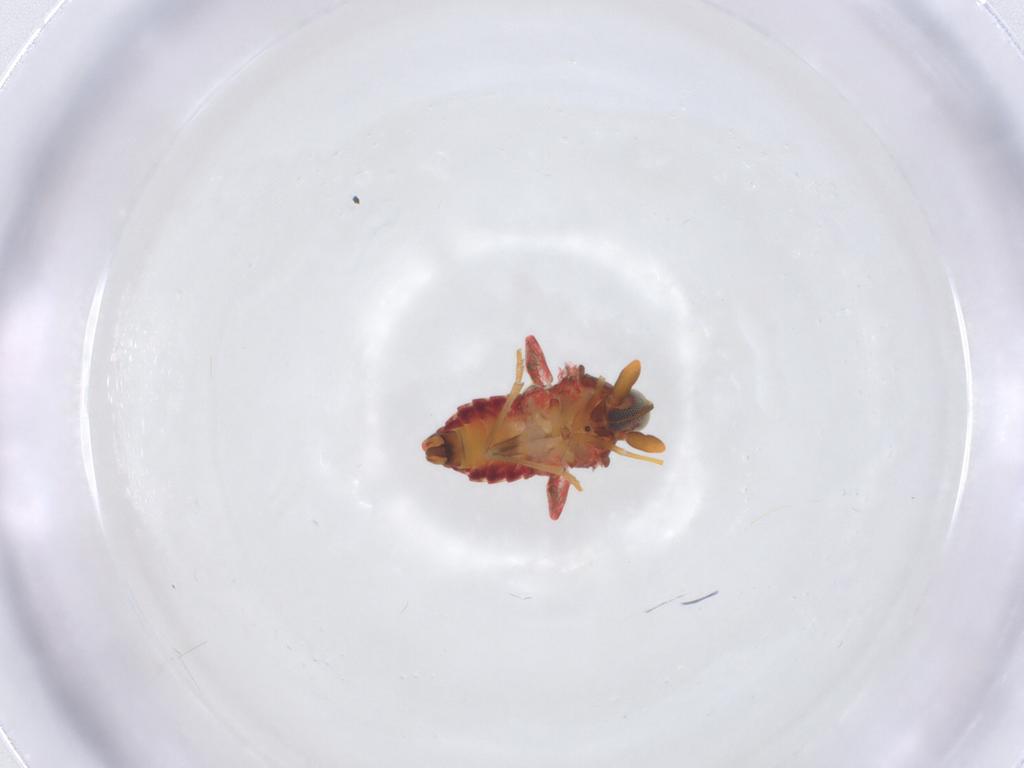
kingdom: Animalia
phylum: Arthropoda
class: Insecta
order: Hemiptera
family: Derbidae
